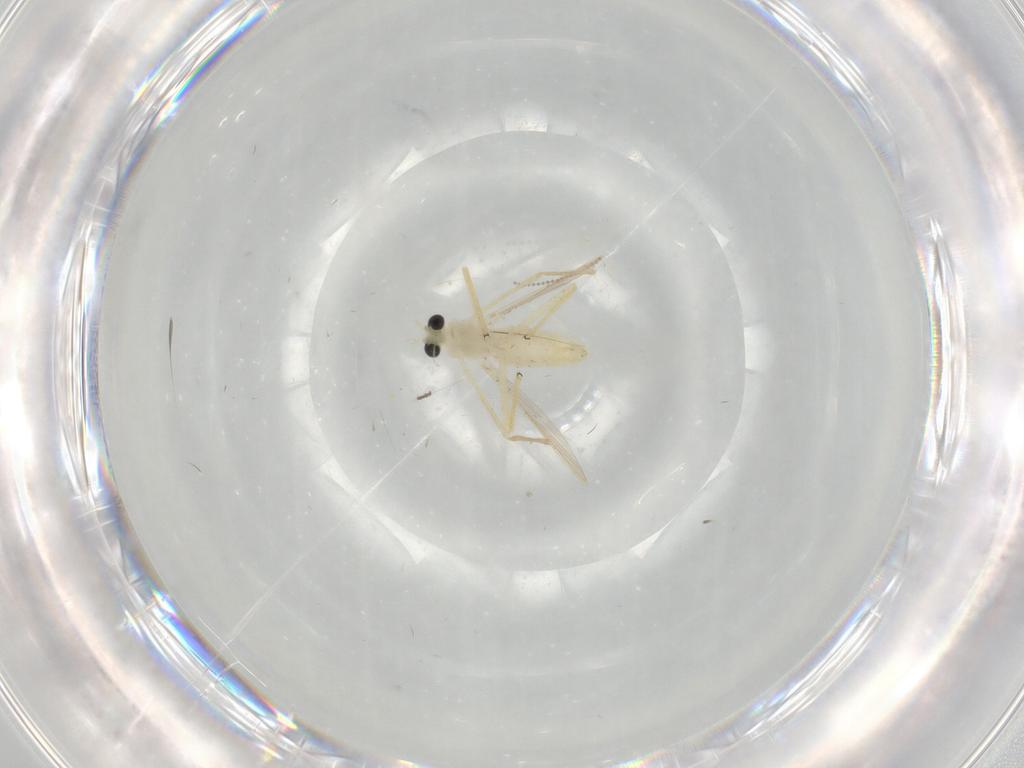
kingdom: Animalia
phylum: Arthropoda
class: Insecta
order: Diptera
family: Chironomidae
